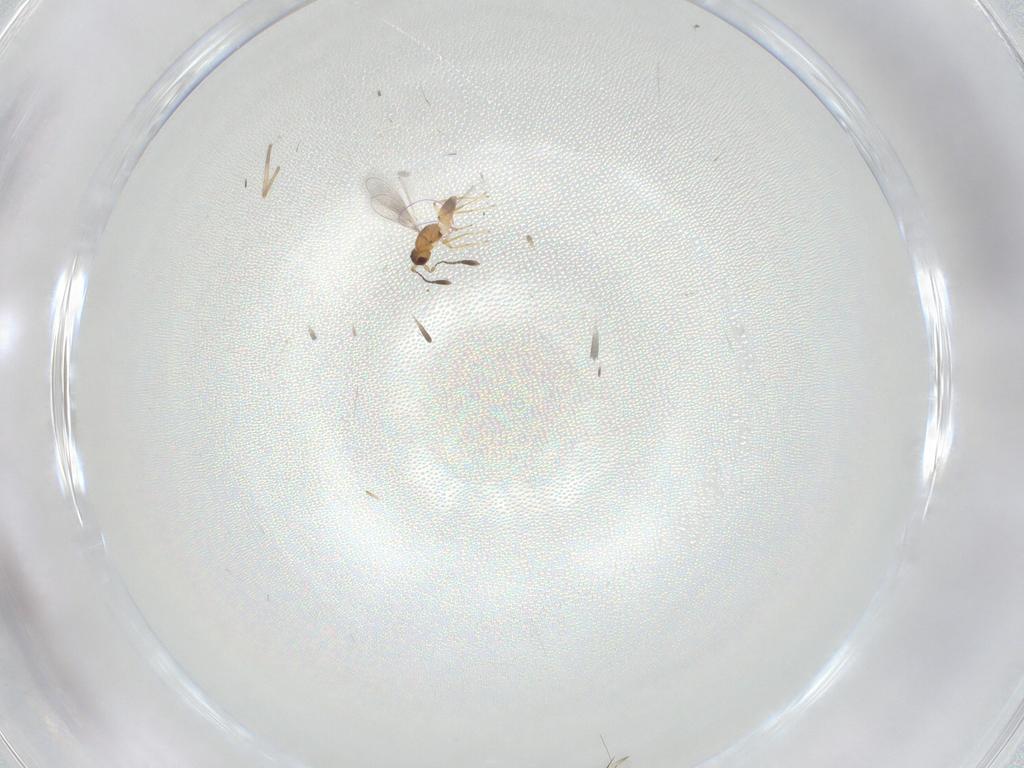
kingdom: Animalia
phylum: Arthropoda
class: Insecta
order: Hymenoptera
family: Mymaridae
